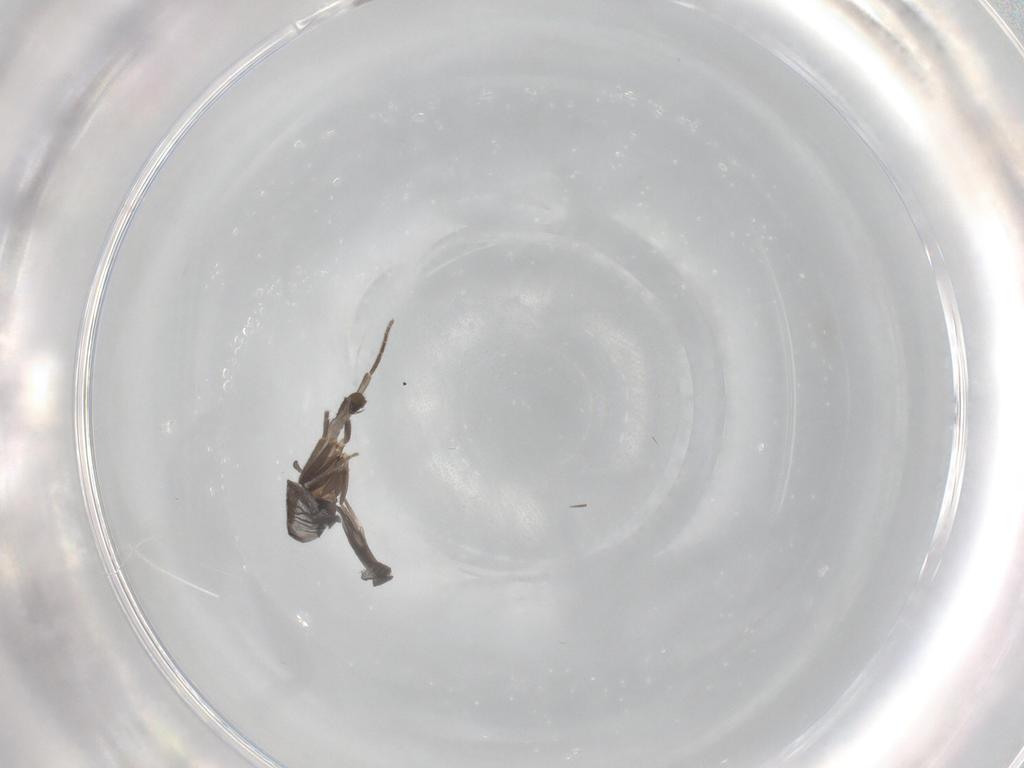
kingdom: Animalia
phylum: Arthropoda
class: Insecta
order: Diptera
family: Phoridae
